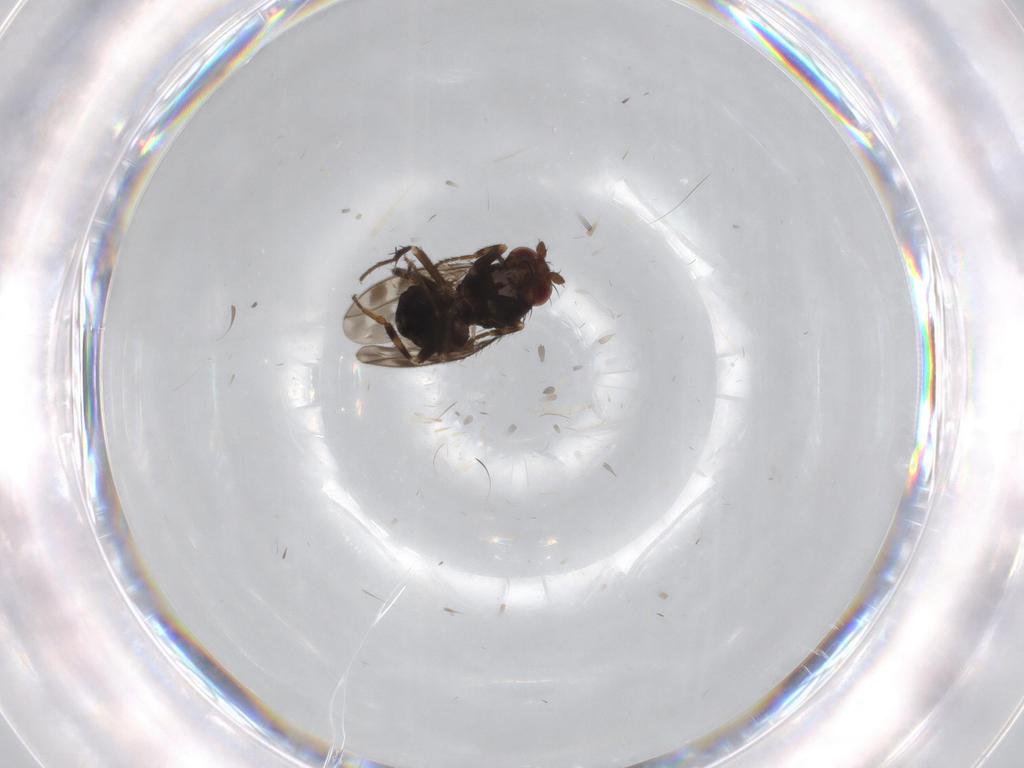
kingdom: Animalia
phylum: Arthropoda
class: Insecta
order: Diptera
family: Sphaeroceridae
